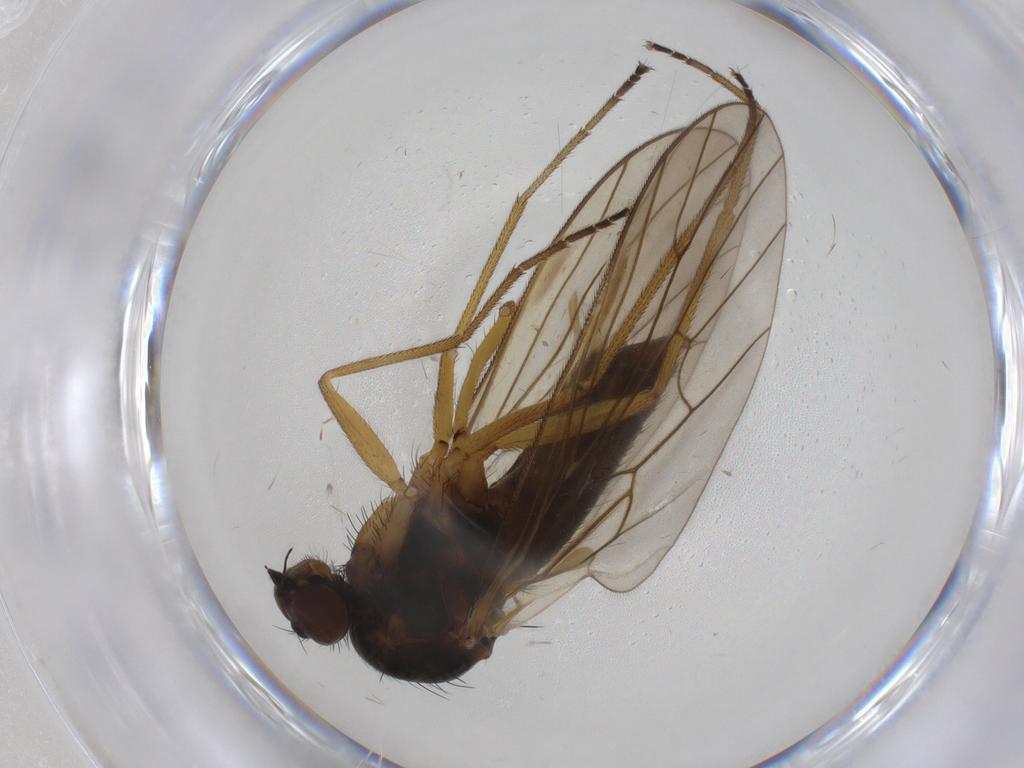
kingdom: Animalia
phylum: Arthropoda
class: Insecta
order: Diptera
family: Brachystomatidae
